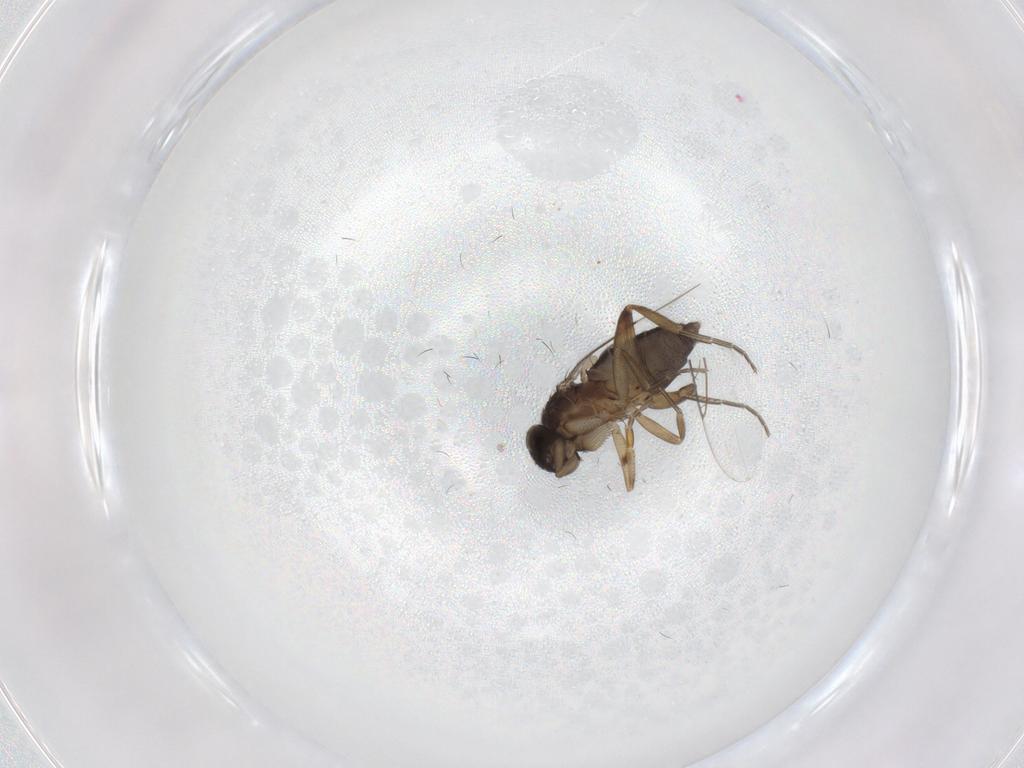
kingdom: Animalia
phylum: Arthropoda
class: Insecta
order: Diptera
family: Phoridae
